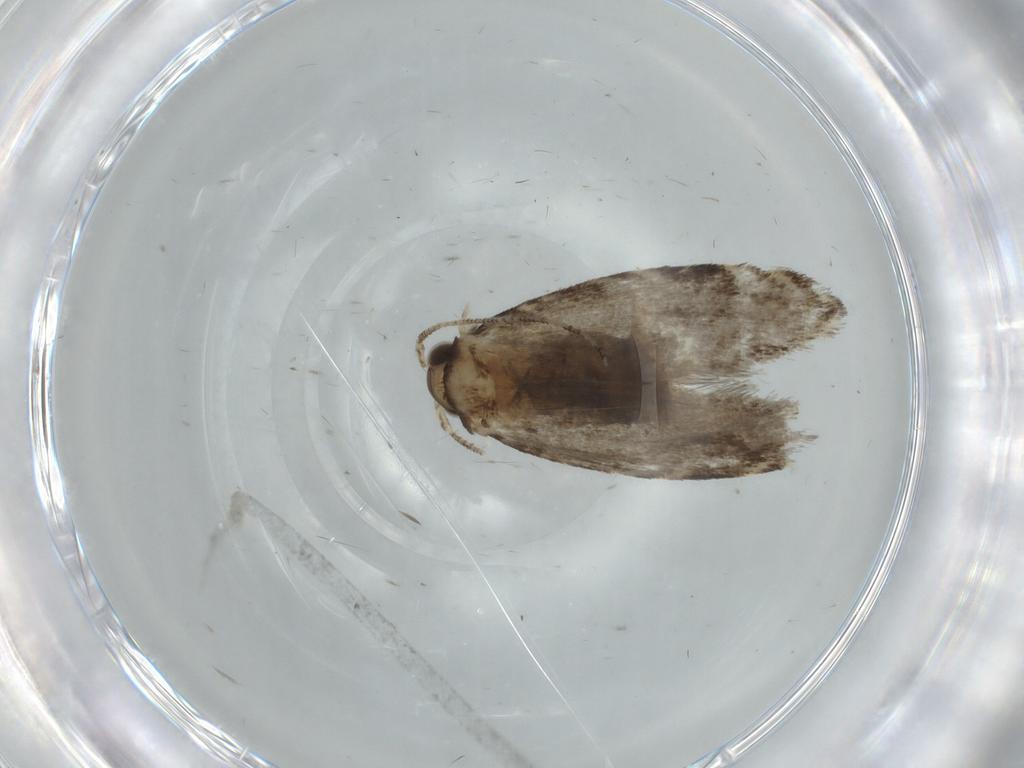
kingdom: Animalia
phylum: Arthropoda
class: Insecta
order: Lepidoptera
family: Tineidae
